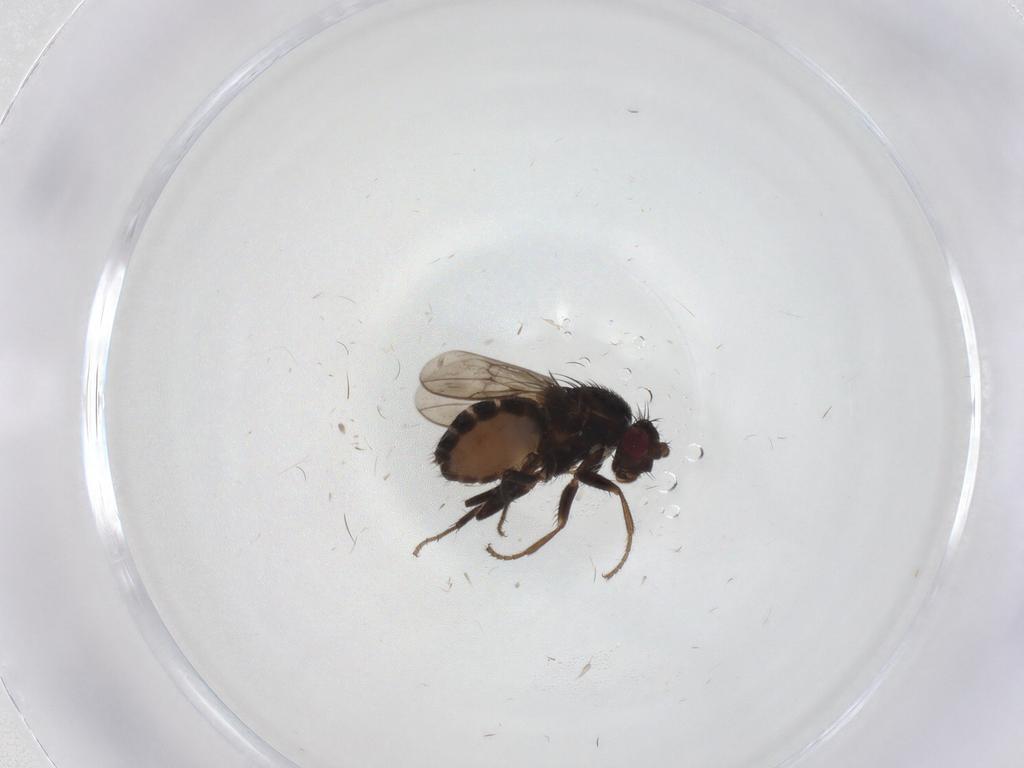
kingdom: Animalia
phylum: Arthropoda
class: Insecta
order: Diptera
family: Sphaeroceridae
